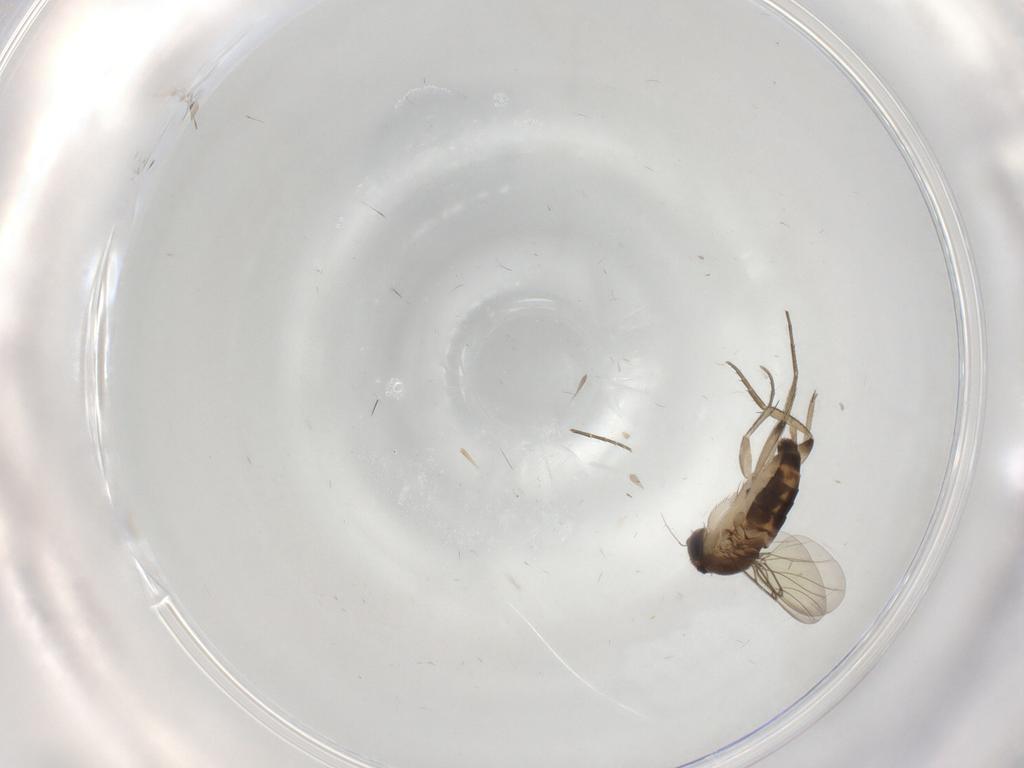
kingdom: Animalia
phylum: Arthropoda
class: Insecta
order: Diptera
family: Phoridae
